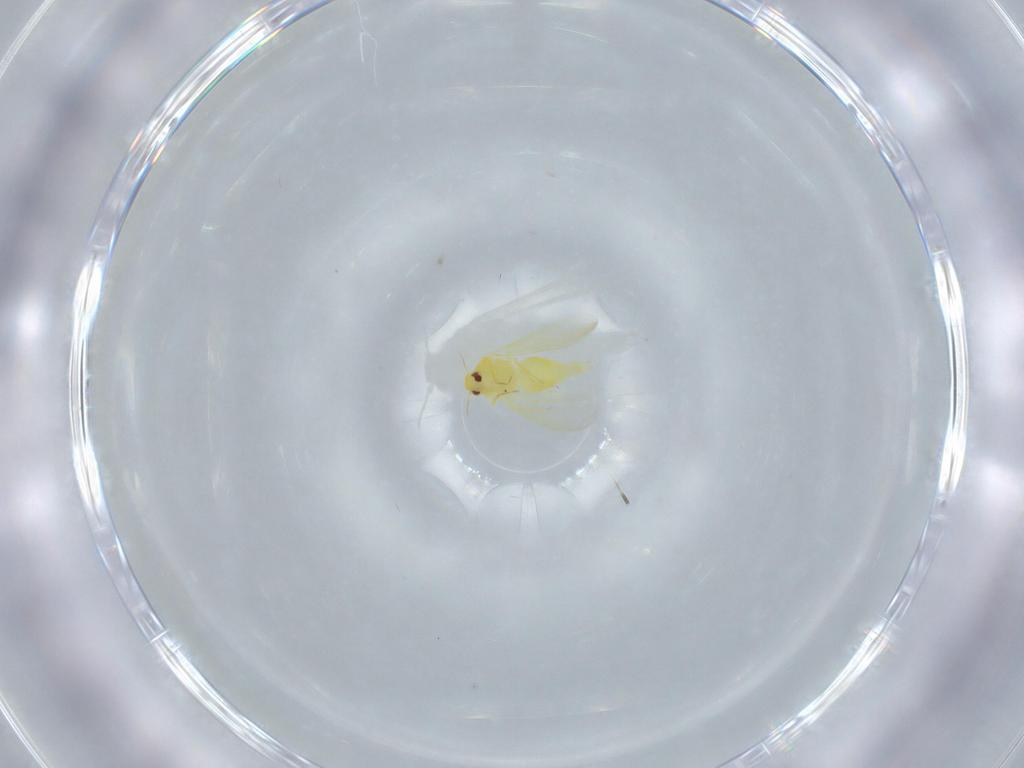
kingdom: Animalia
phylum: Arthropoda
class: Insecta
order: Hemiptera
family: Aleyrodidae
